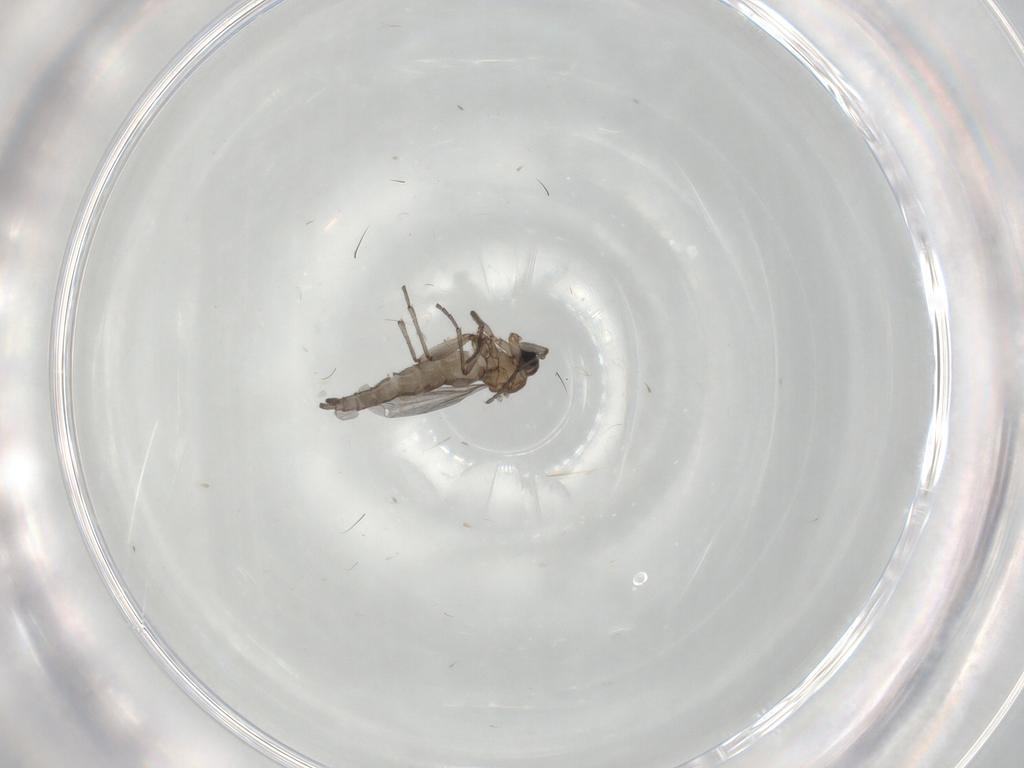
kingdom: Animalia
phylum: Arthropoda
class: Insecta
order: Diptera
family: Sciaridae
